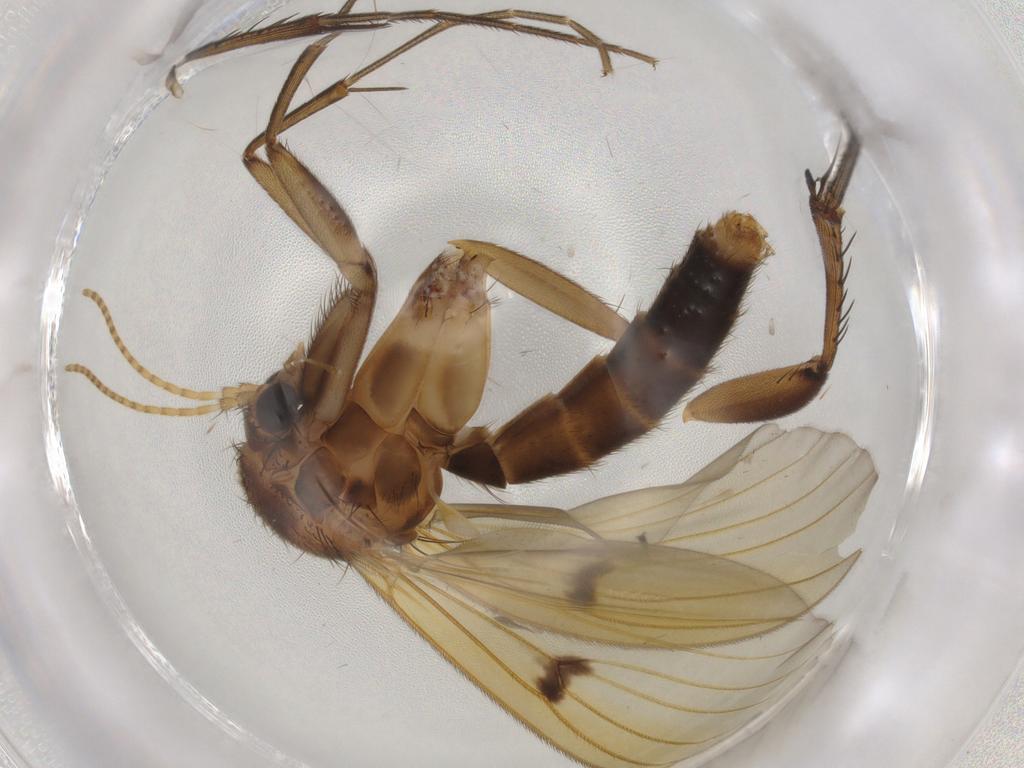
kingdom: Animalia
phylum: Arthropoda
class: Insecta
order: Diptera
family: Mycetophilidae
